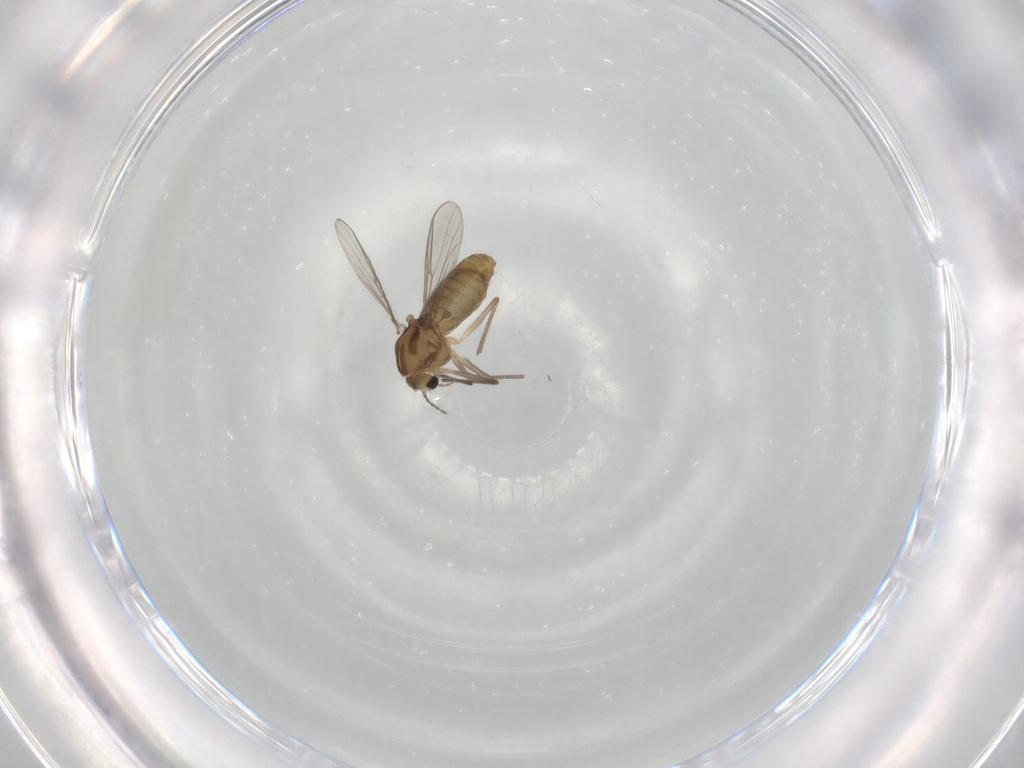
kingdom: Animalia
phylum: Arthropoda
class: Insecta
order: Diptera
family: Chironomidae
